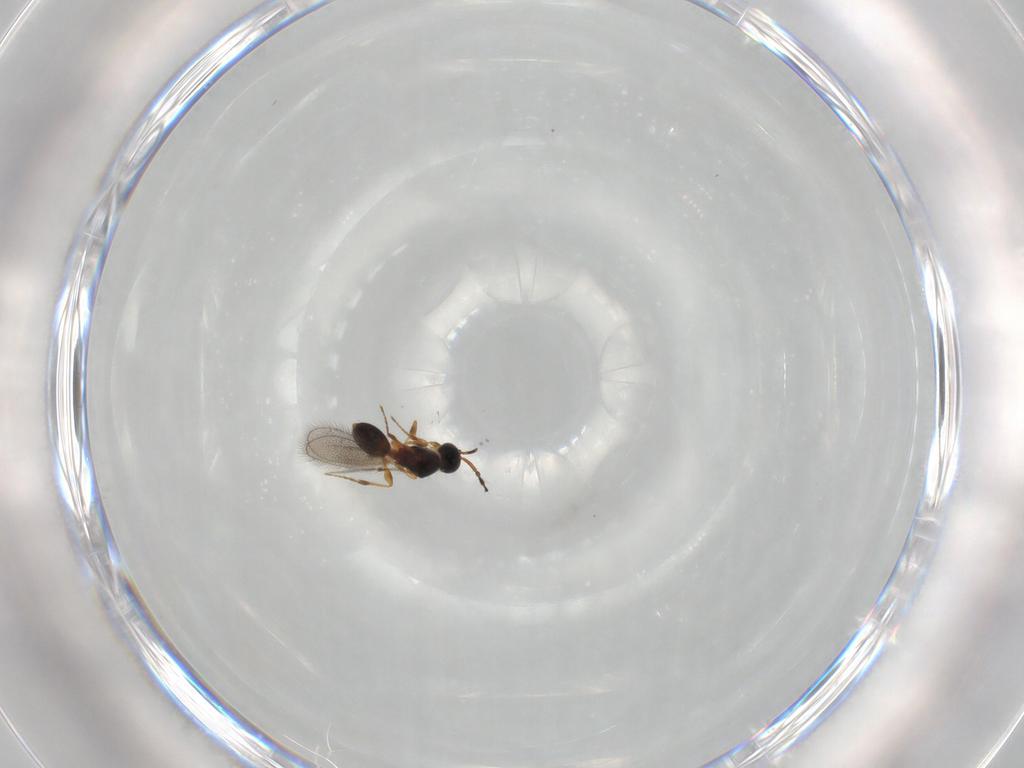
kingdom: Animalia
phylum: Arthropoda
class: Insecta
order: Hymenoptera
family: Diapriidae
